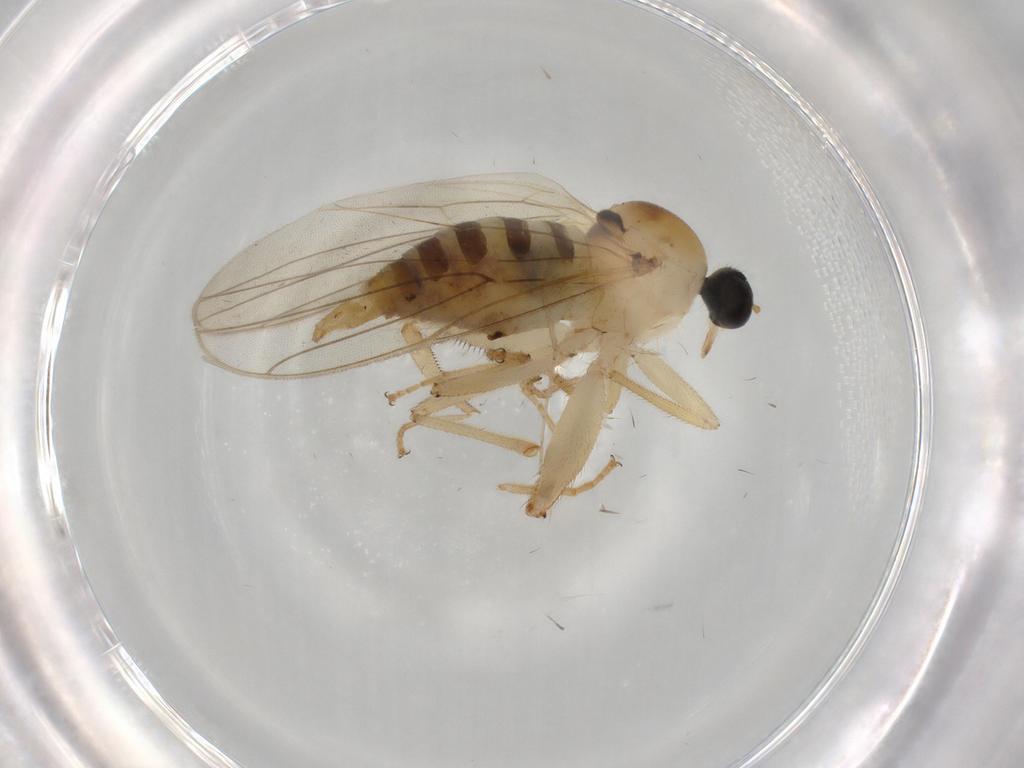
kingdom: Animalia
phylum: Arthropoda
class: Insecta
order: Diptera
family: Hybotidae
